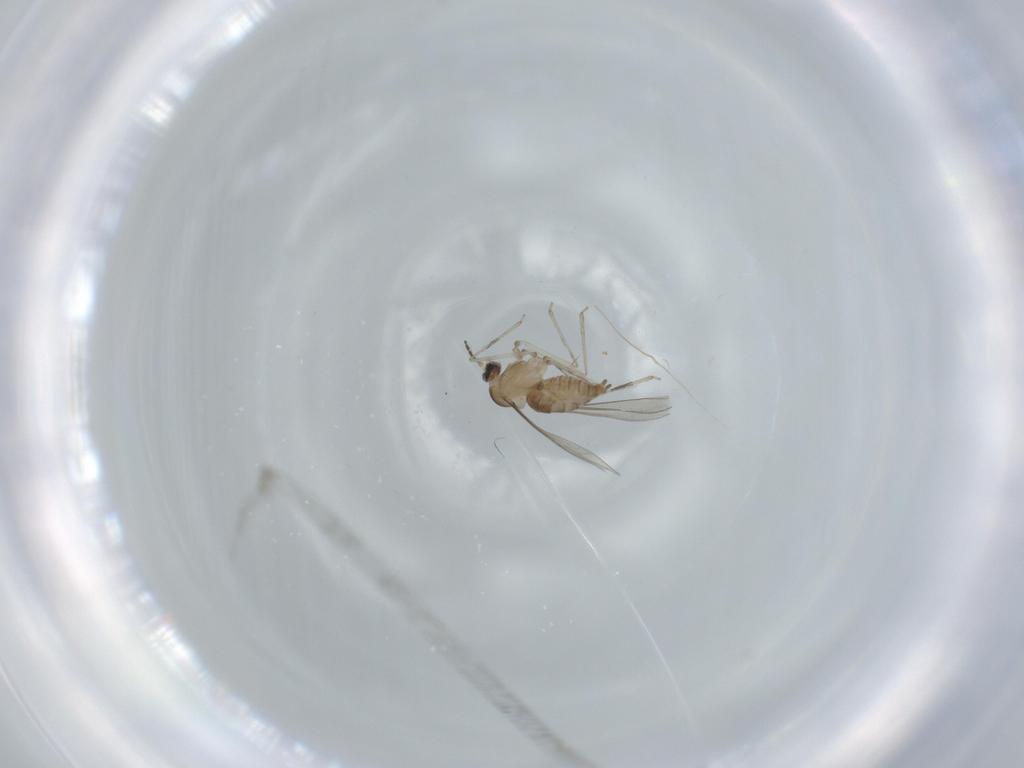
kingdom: Animalia
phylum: Arthropoda
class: Insecta
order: Diptera
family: Cecidomyiidae
